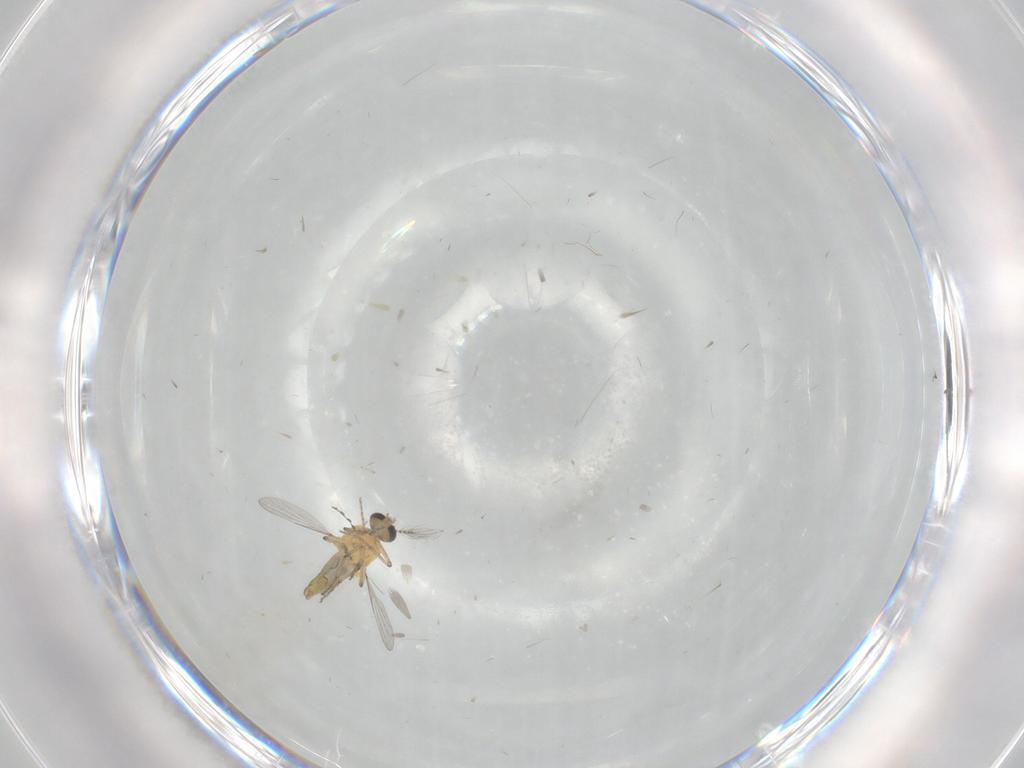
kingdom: Animalia
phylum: Arthropoda
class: Insecta
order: Diptera
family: Ceratopogonidae
